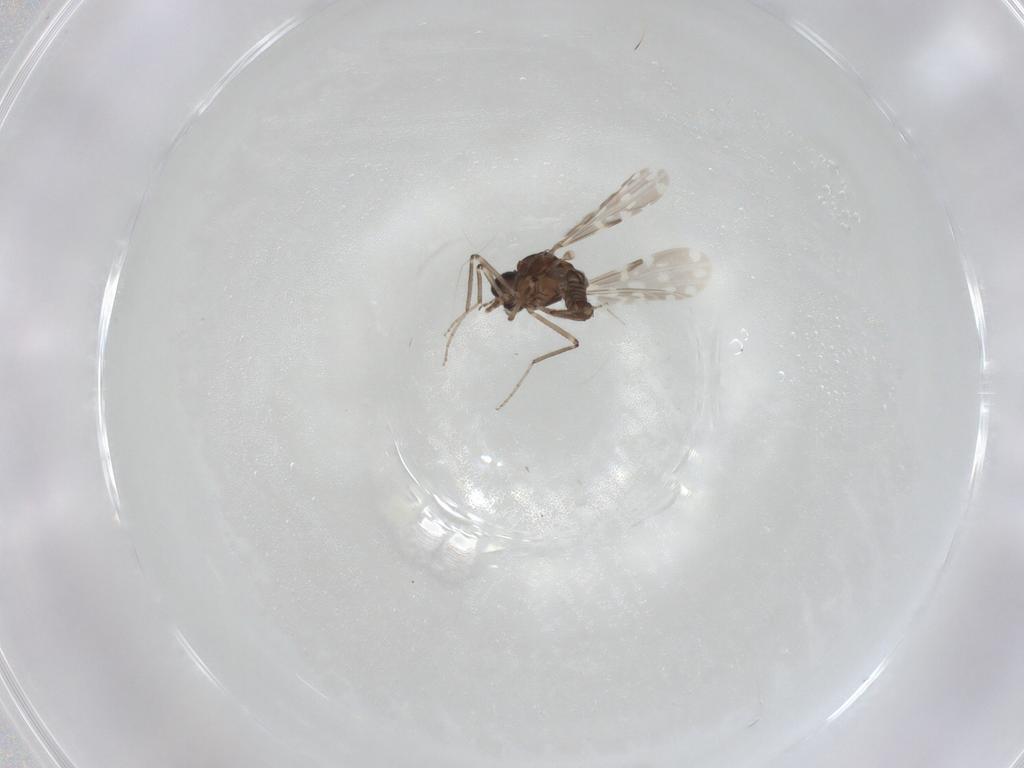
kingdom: Animalia
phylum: Arthropoda
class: Insecta
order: Diptera
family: Ceratopogonidae
